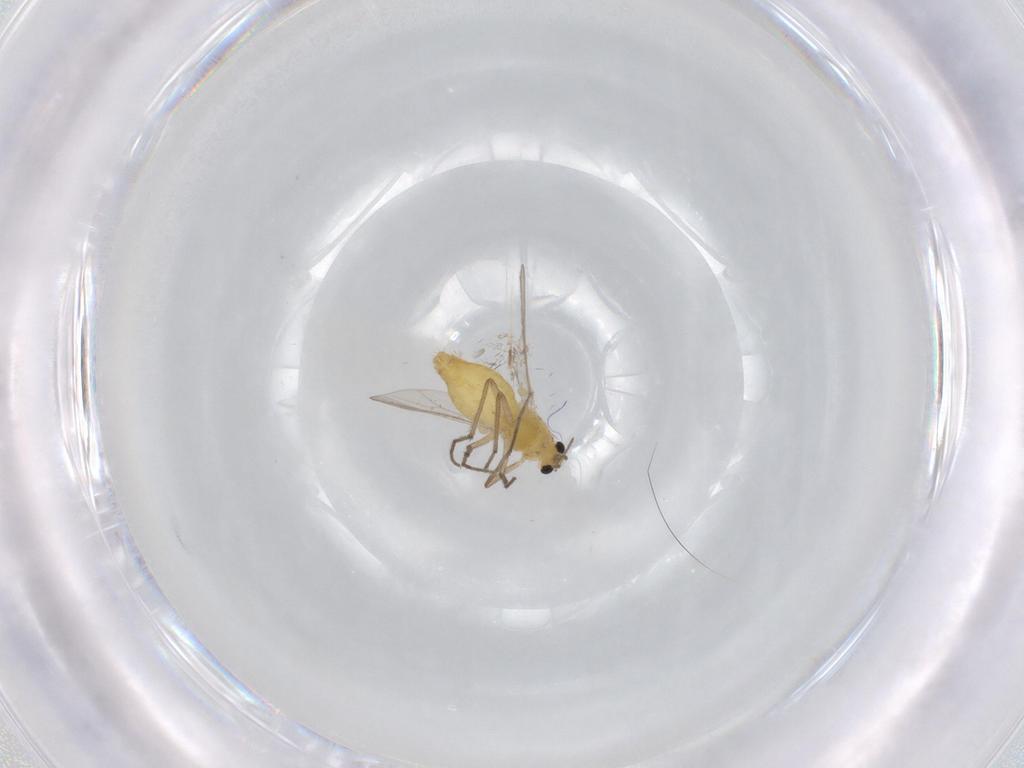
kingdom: Animalia
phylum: Arthropoda
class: Insecta
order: Diptera
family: Chironomidae
